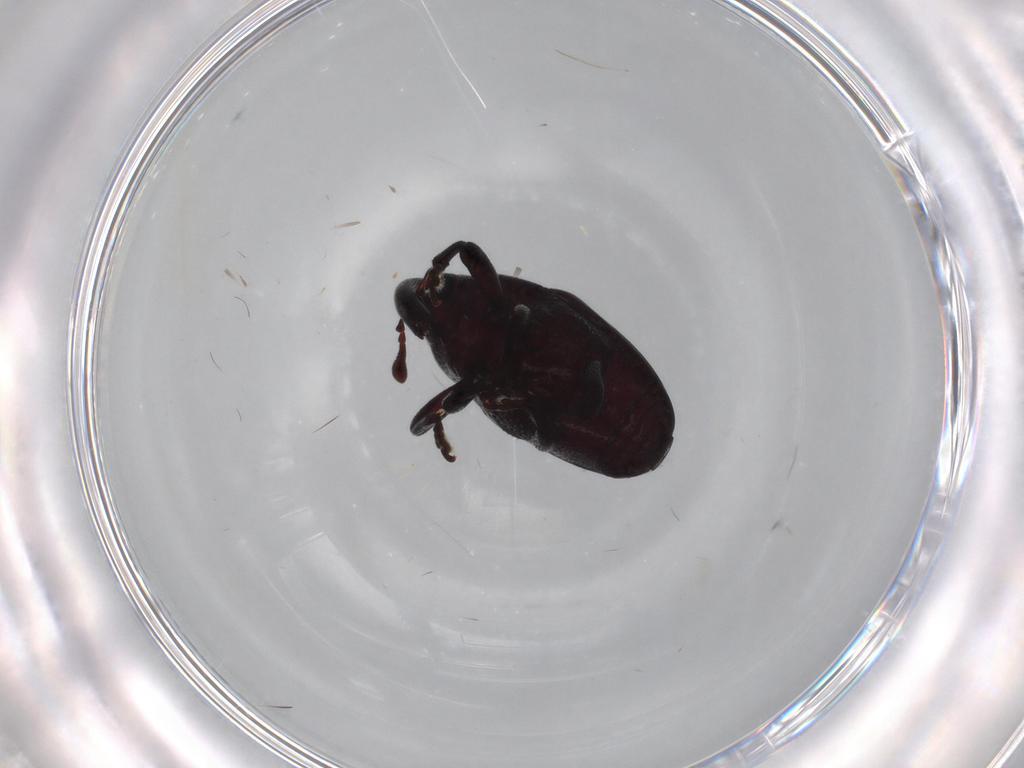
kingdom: Animalia
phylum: Arthropoda
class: Insecta
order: Coleoptera
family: Curculionidae
